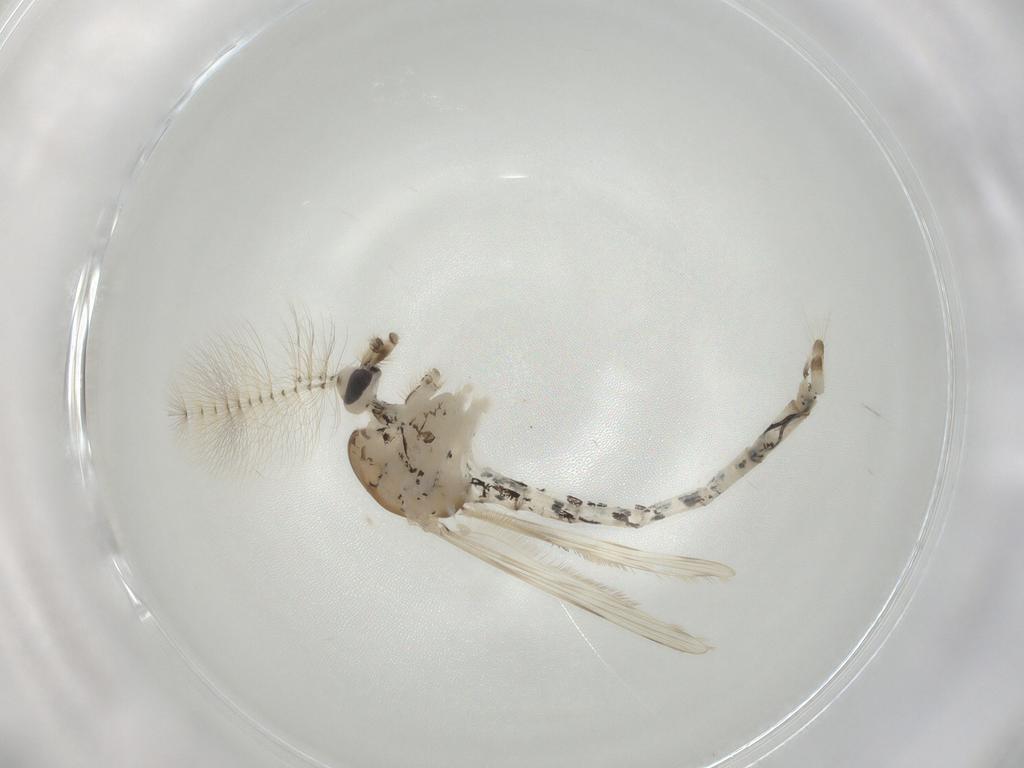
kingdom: Animalia
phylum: Arthropoda
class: Insecta
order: Diptera
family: Chaoboridae
